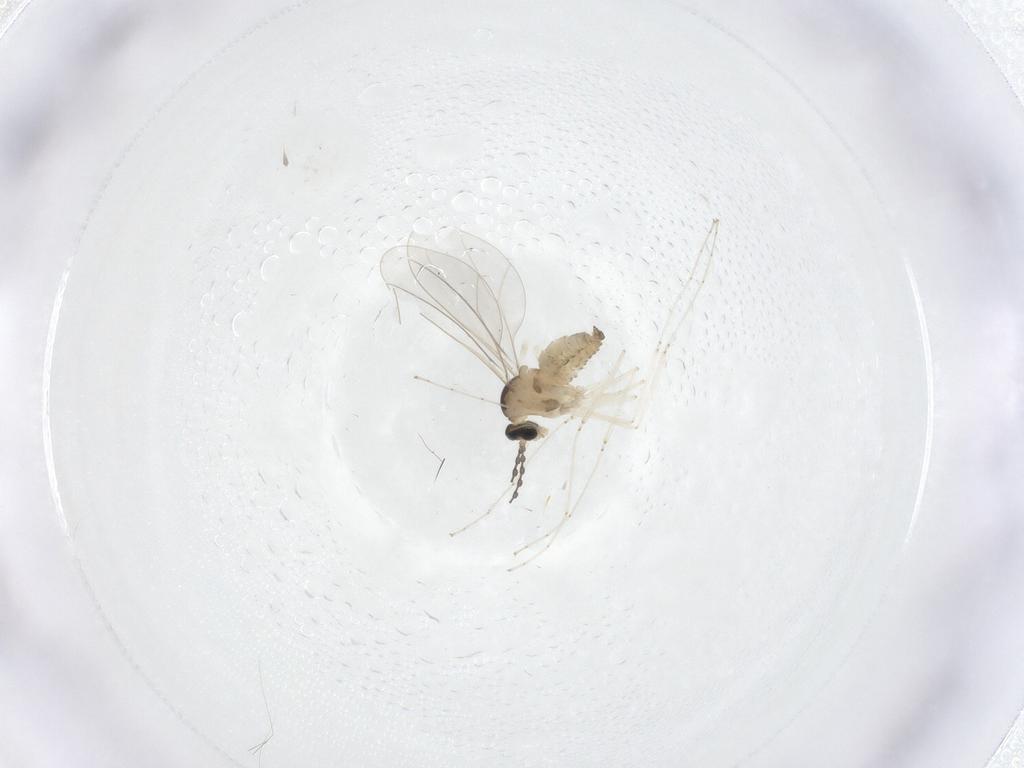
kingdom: Animalia
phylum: Arthropoda
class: Insecta
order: Diptera
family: Cecidomyiidae
